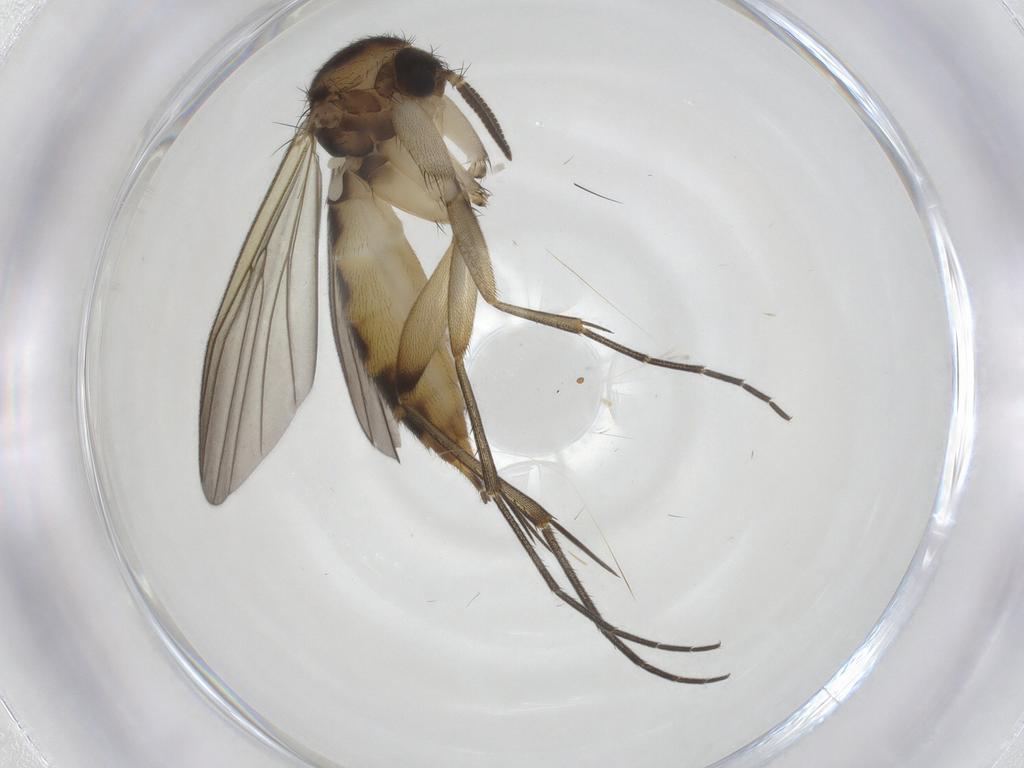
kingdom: Animalia
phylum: Arthropoda
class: Insecta
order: Diptera
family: Mycetophilidae
